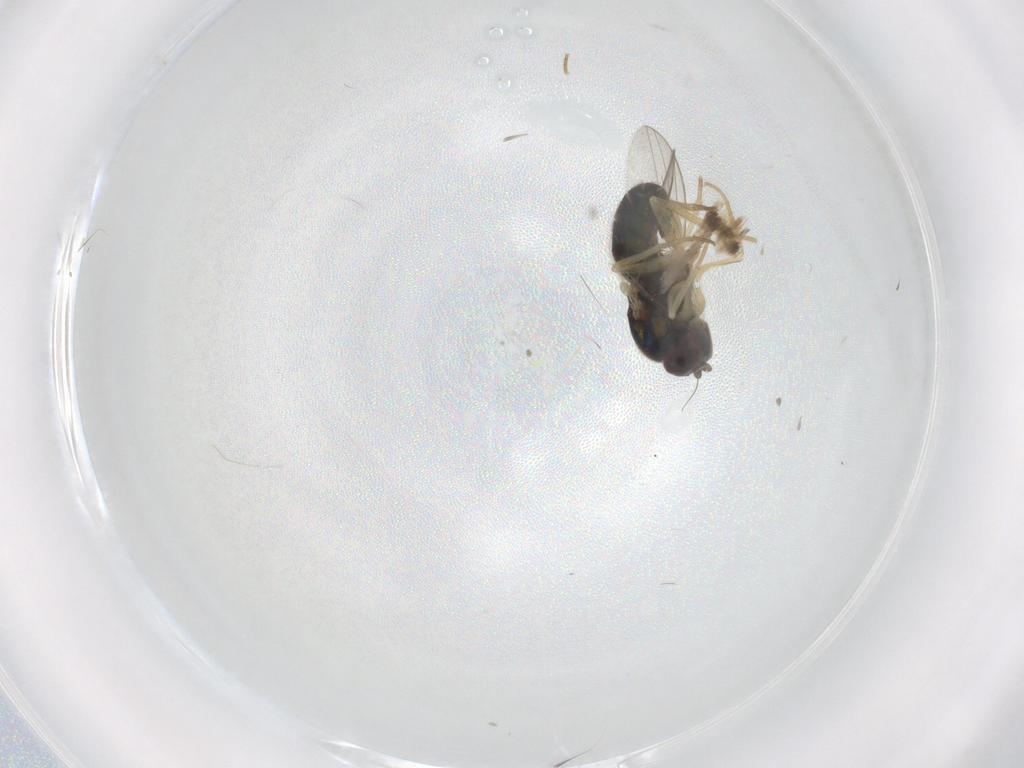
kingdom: Animalia
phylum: Arthropoda
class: Insecta
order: Diptera
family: Dolichopodidae
